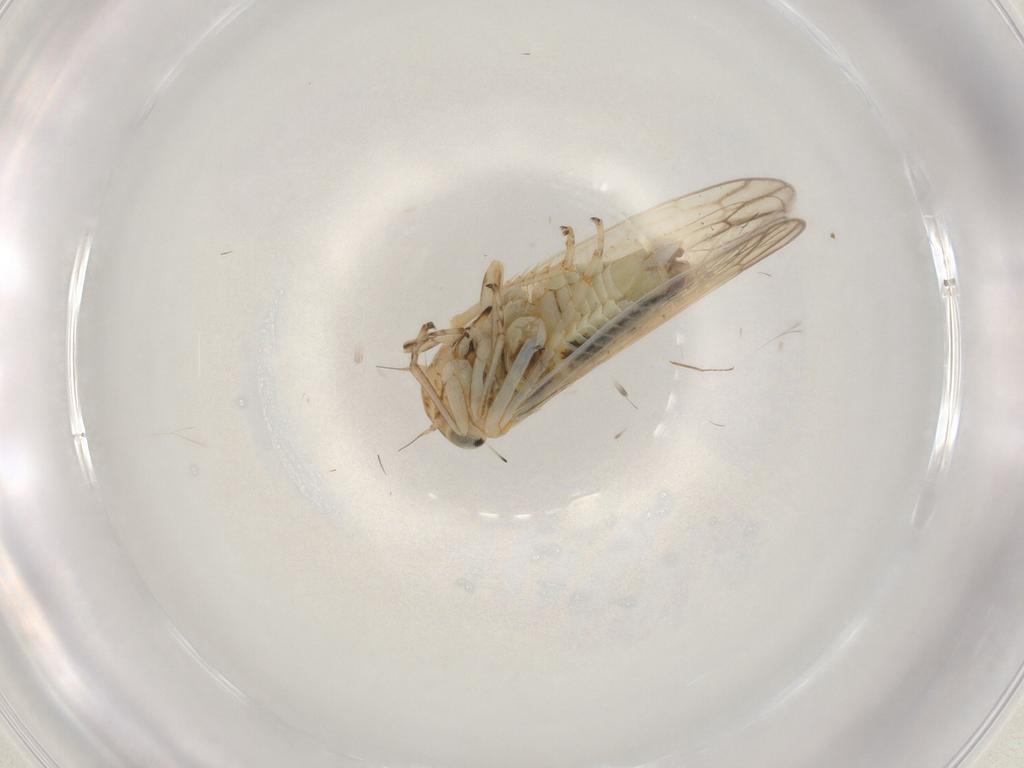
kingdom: Animalia
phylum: Arthropoda
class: Insecta
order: Hemiptera
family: Cicadellidae
